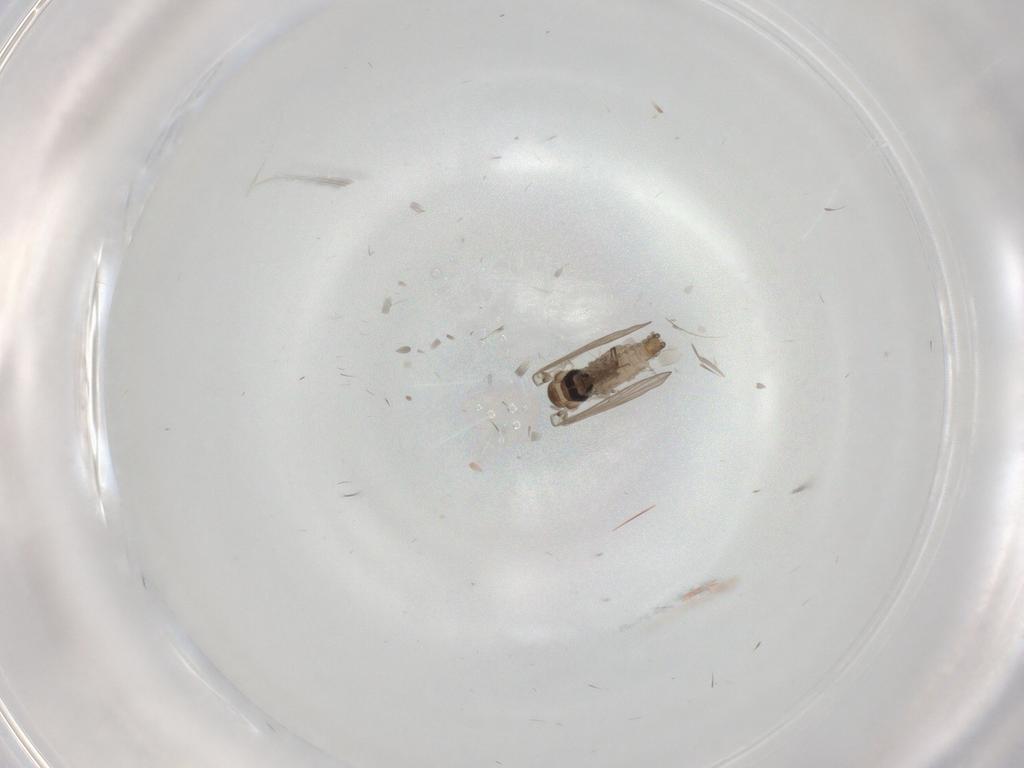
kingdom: Animalia
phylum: Arthropoda
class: Insecta
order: Diptera
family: Psychodidae
